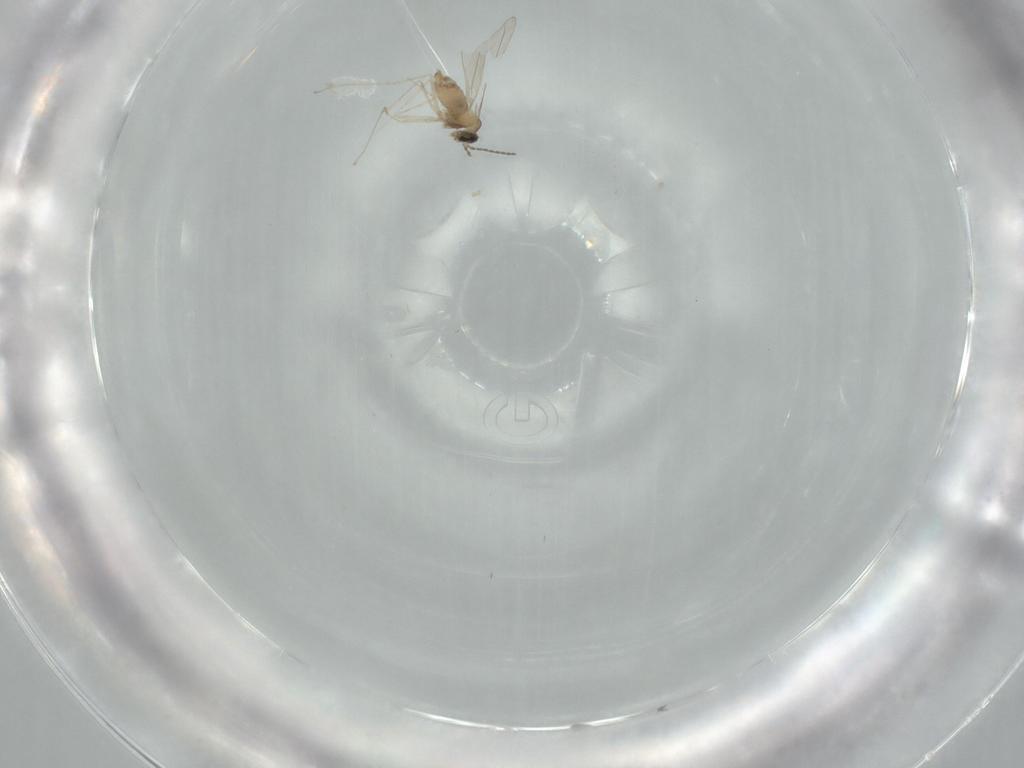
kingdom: Animalia
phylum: Arthropoda
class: Insecta
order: Diptera
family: Cecidomyiidae
